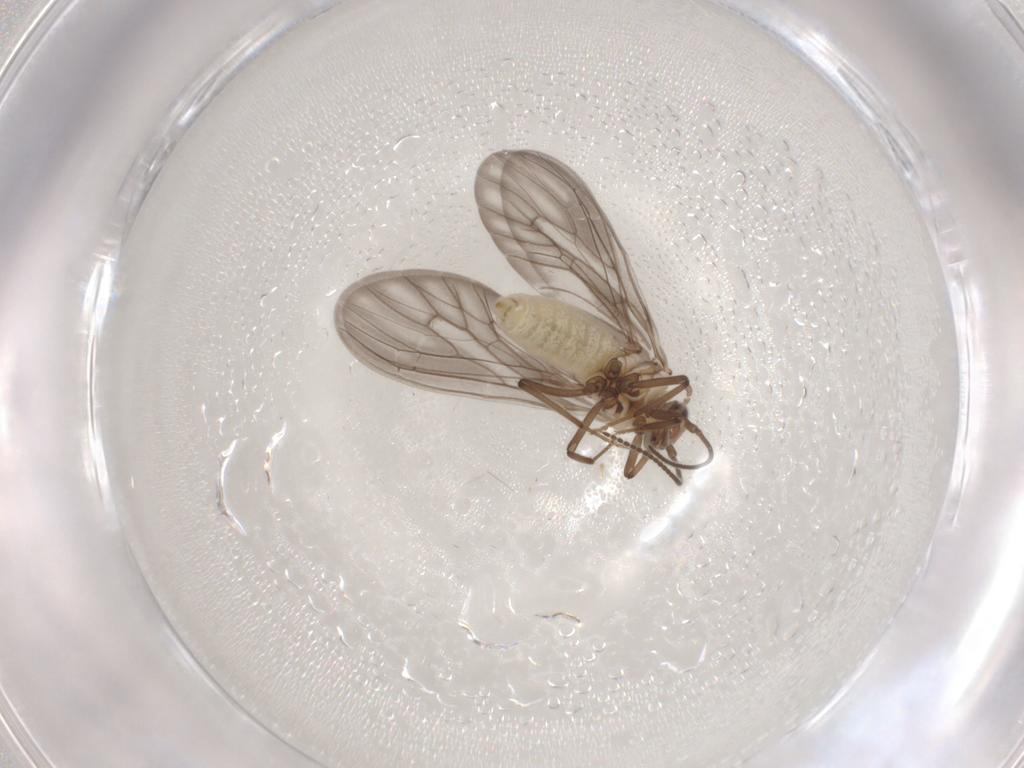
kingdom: Animalia
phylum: Arthropoda
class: Insecta
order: Neuroptera
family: Coniopterygidae
